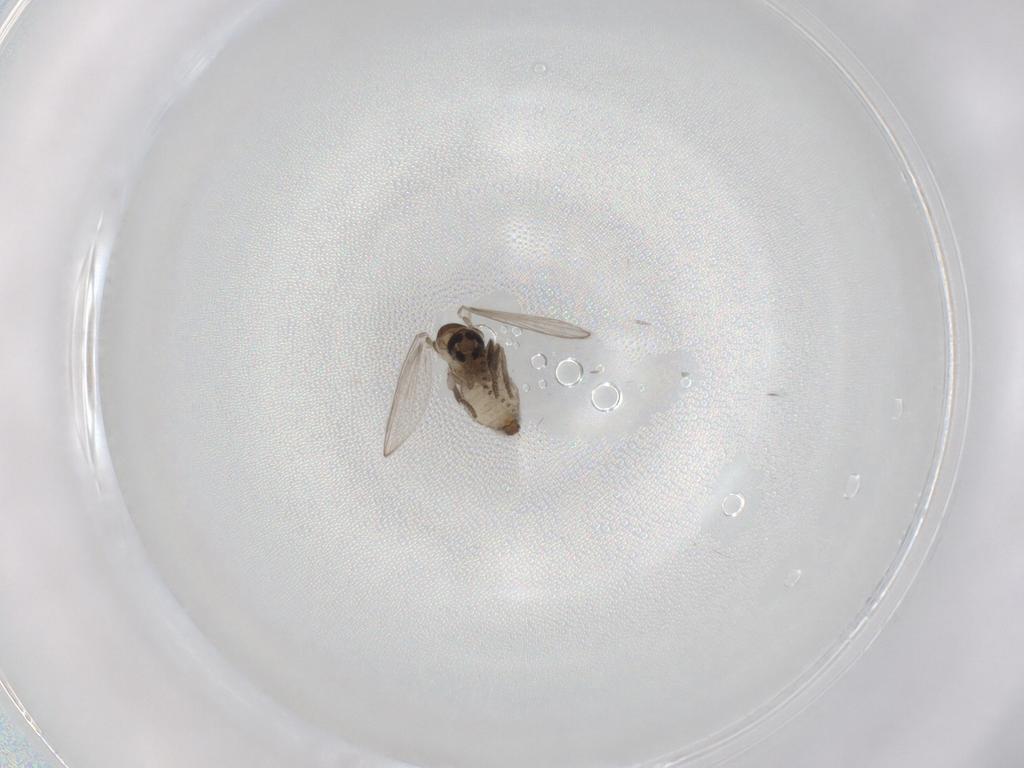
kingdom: Animalia
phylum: Arthropoda
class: Insecta
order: Diptera
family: Psychodidae
